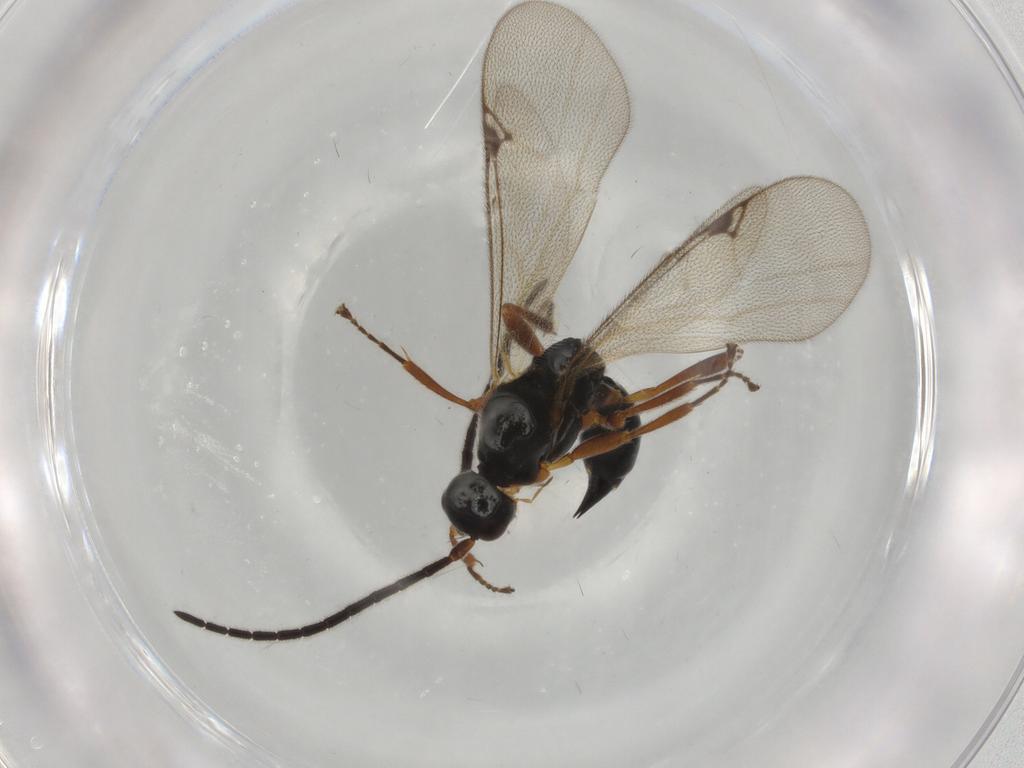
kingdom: Animalia
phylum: Arthropoda
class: Insecta
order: Hymenoptera
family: Proctotrupidae
